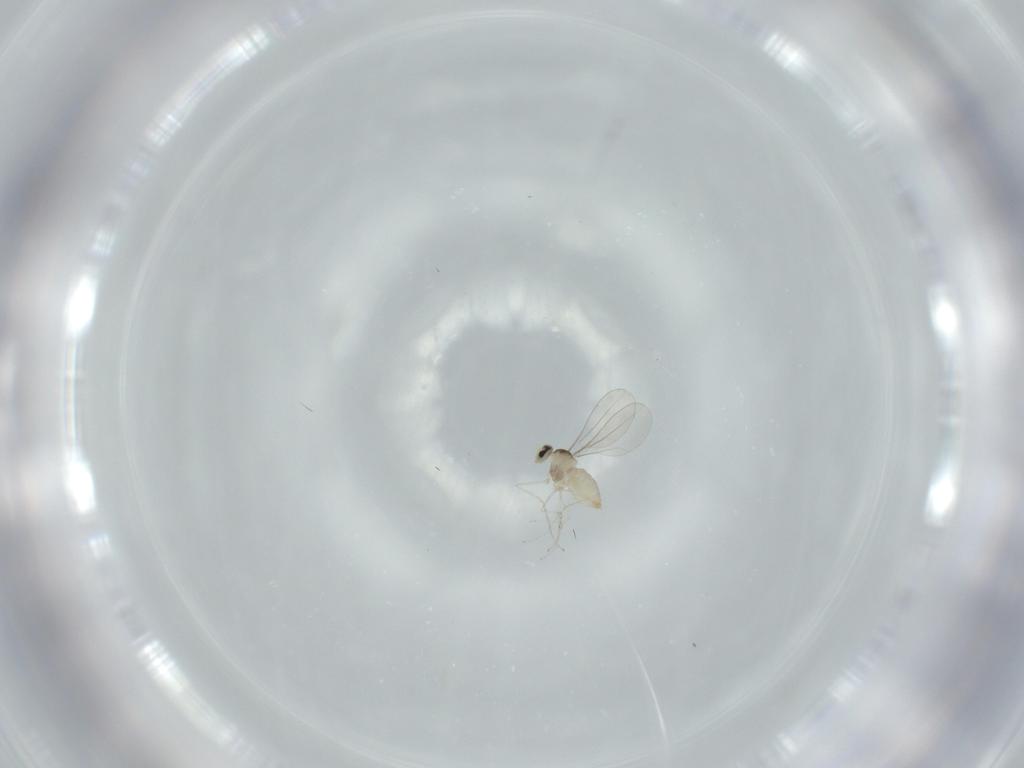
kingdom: Animalia
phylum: Arthropoda
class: Insecta
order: Diptera
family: Cecidomyiidae
